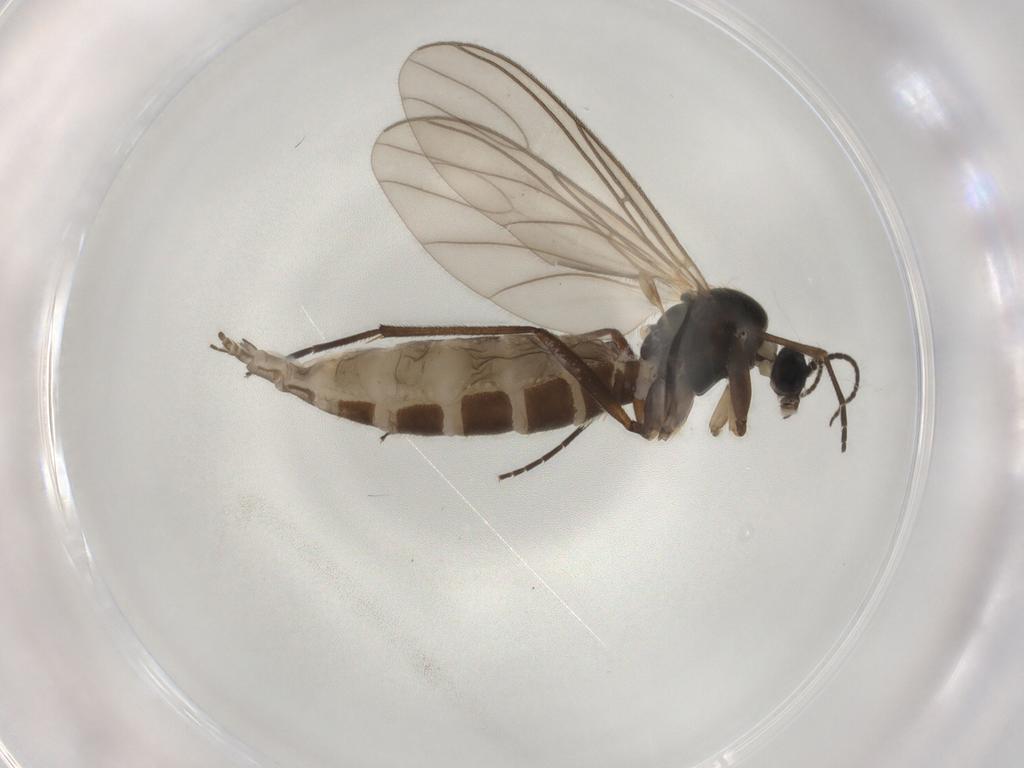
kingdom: Animalia
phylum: Arthropoda
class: Insecta
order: Diptera
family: Sciaridae
